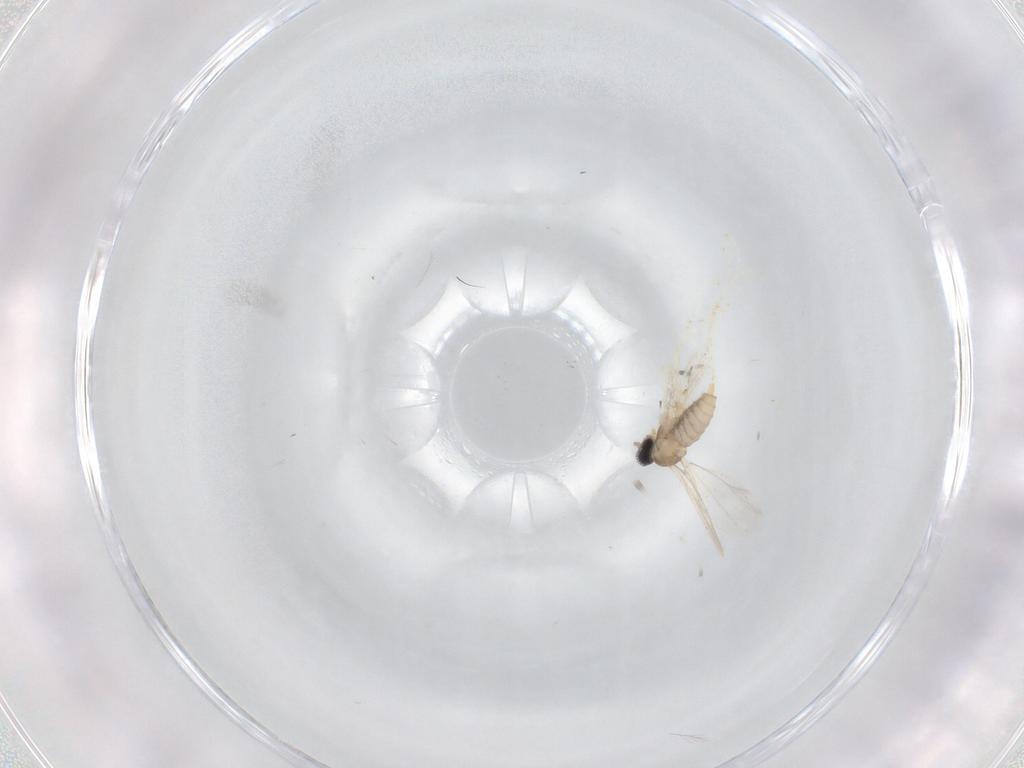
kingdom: Animalia
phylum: Arthropoda
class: Insecta
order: Diptera
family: Cecidomyiidae
